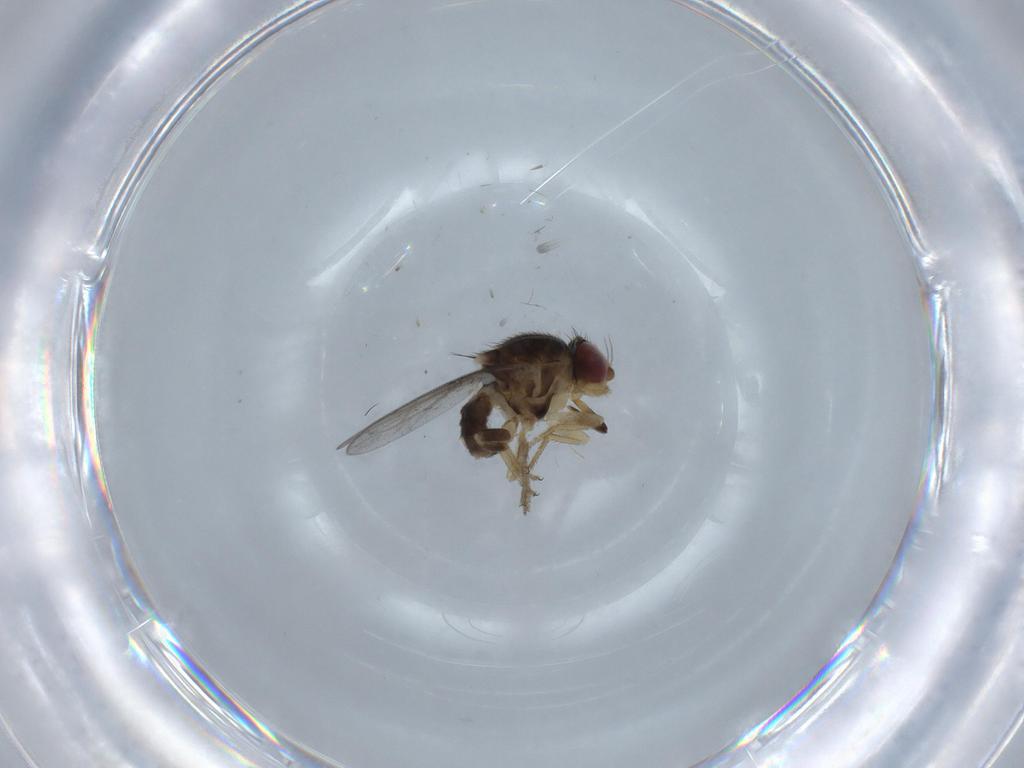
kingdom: Animalia
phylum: Arthropoda
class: Insecta
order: Diptera
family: Chloropidae
